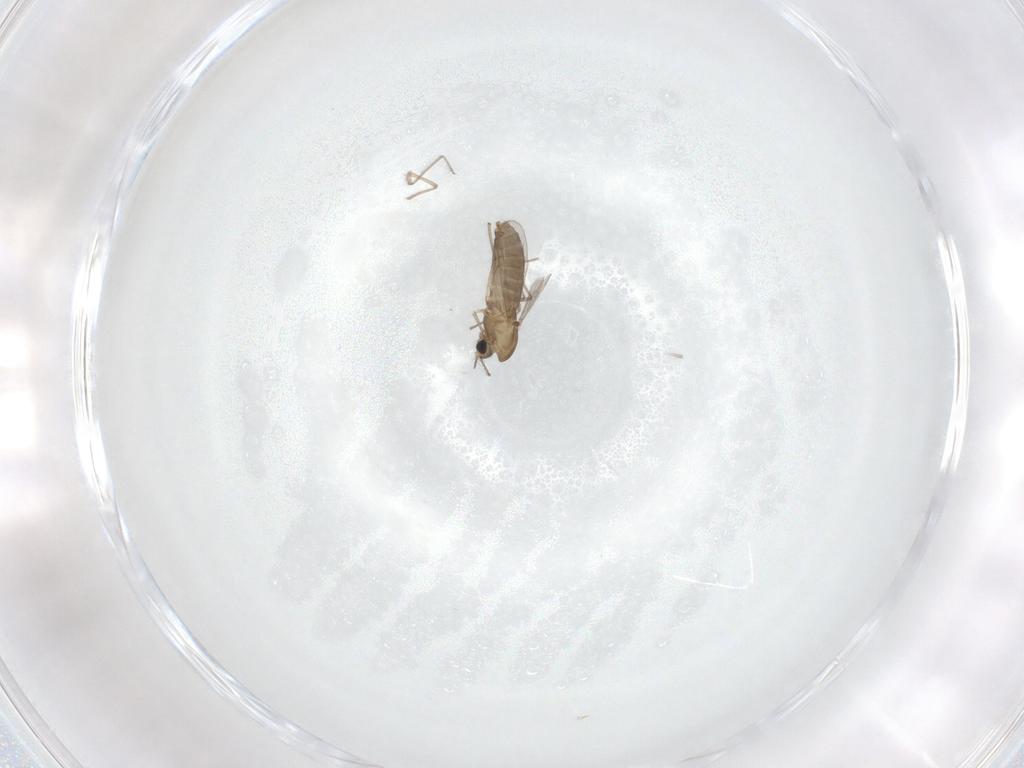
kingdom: Animalia
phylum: Arthropoda
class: Insecta
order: Diptera
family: Chironomidae
